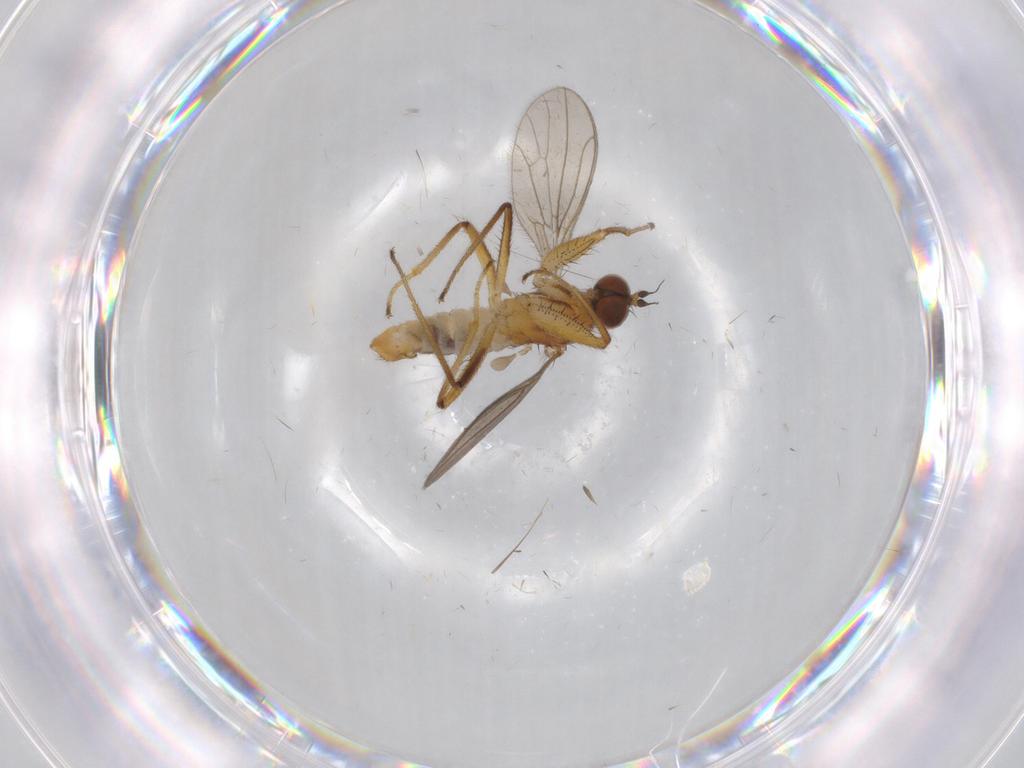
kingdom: Animalia
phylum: Arthropoda
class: Insecta
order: Diptera
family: Empididae
